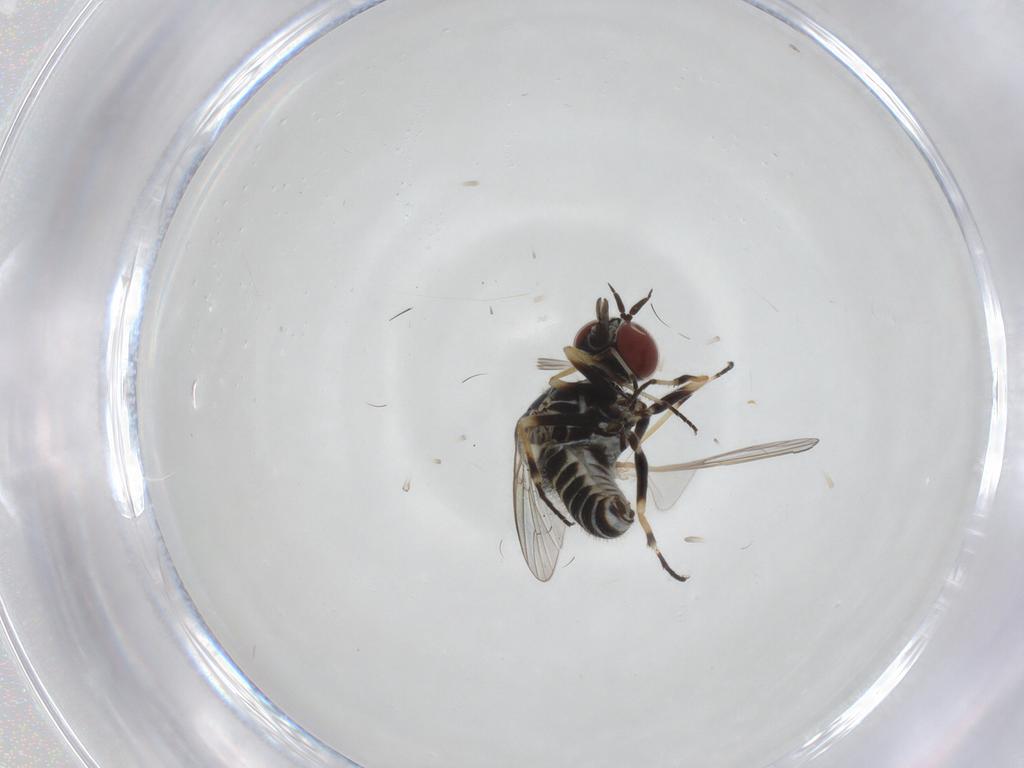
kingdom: Animalia
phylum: Arthropoda
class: Insecta
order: Diptera
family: Mythicomyiidae
